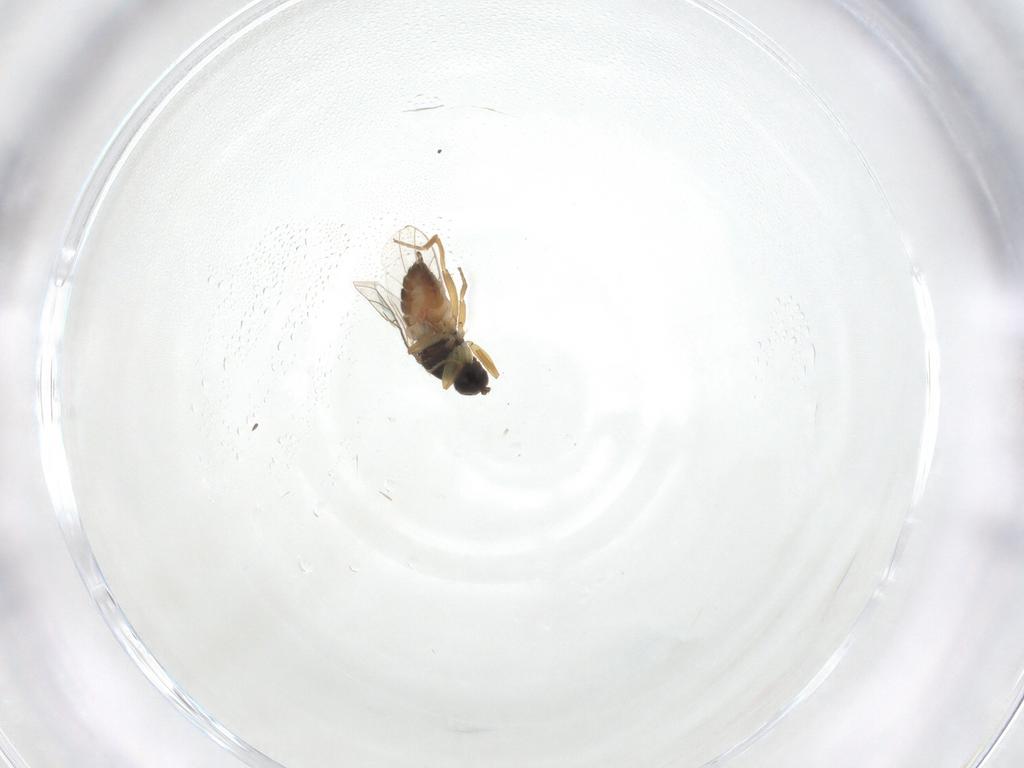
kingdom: Animalia
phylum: Arthropoda
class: Insecta
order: Diptera
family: Hybotidae
